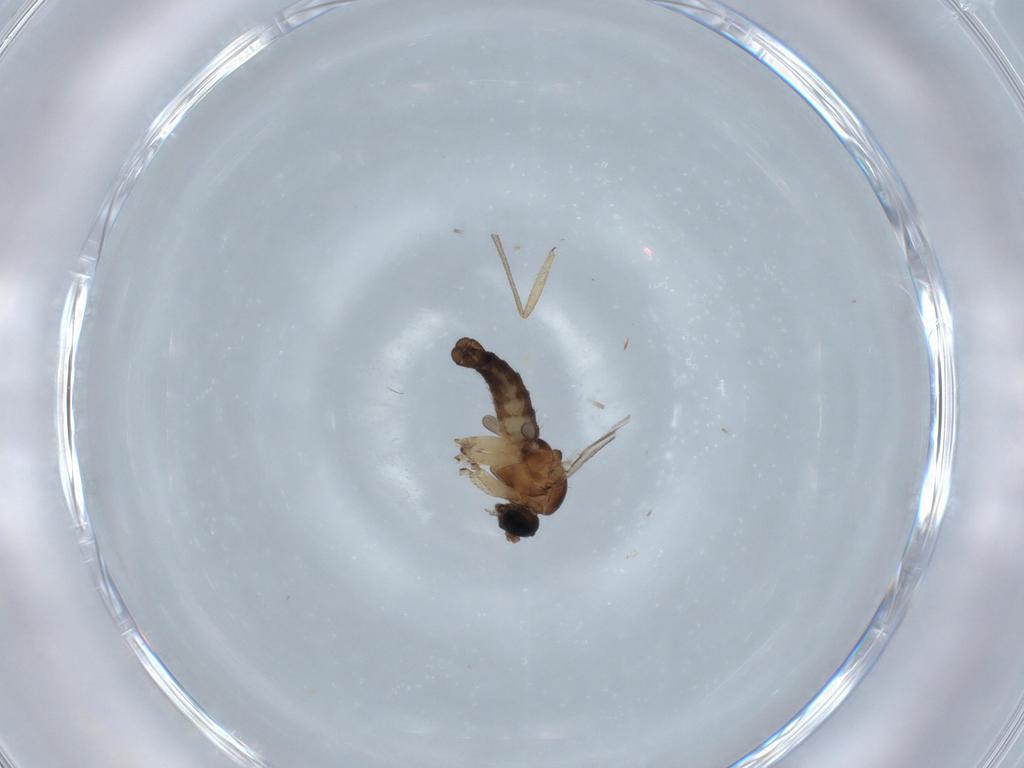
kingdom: Animalia
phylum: Arthropoda
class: Insecta
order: Diptera
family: Sciaridae
